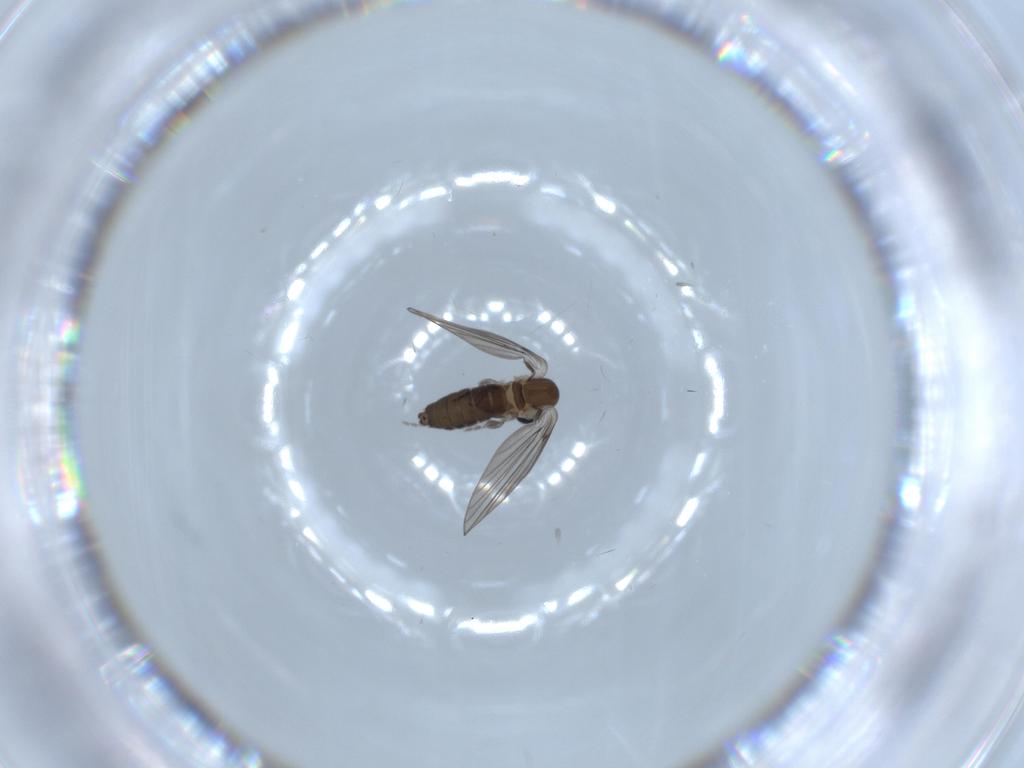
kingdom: Animalia
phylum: Arthropoda
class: Insecta
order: Diptera
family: Psychodidae
